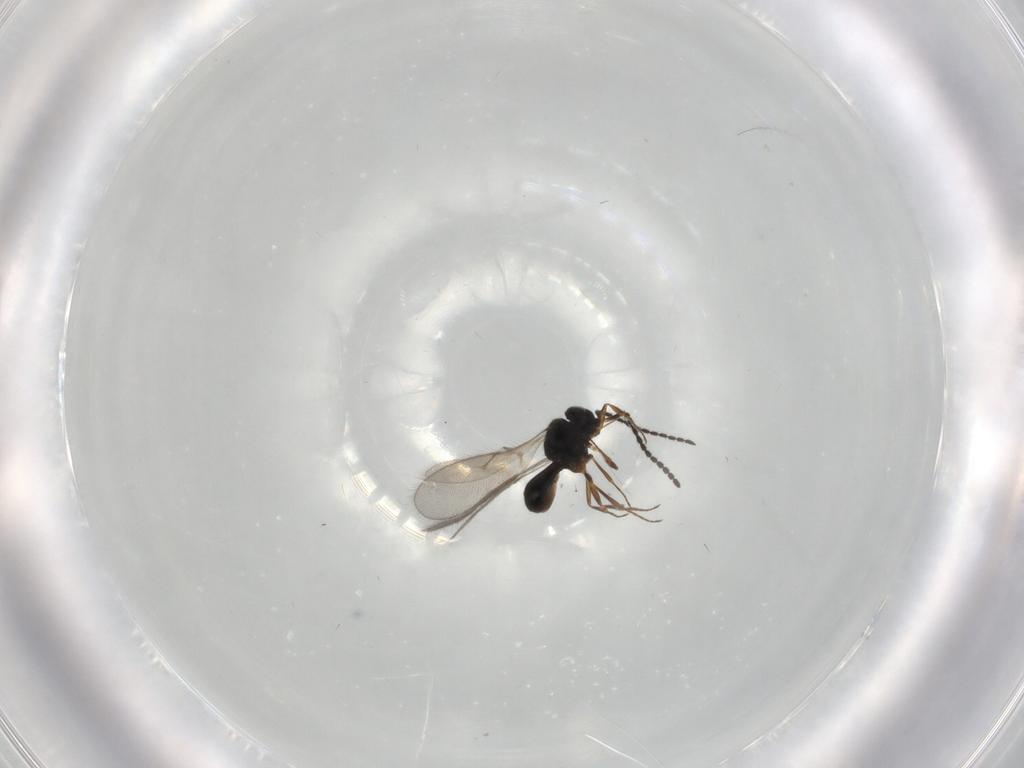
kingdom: Animalia
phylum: Arthropoda
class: Insecta
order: Hymenoptera
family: Scelionidae
